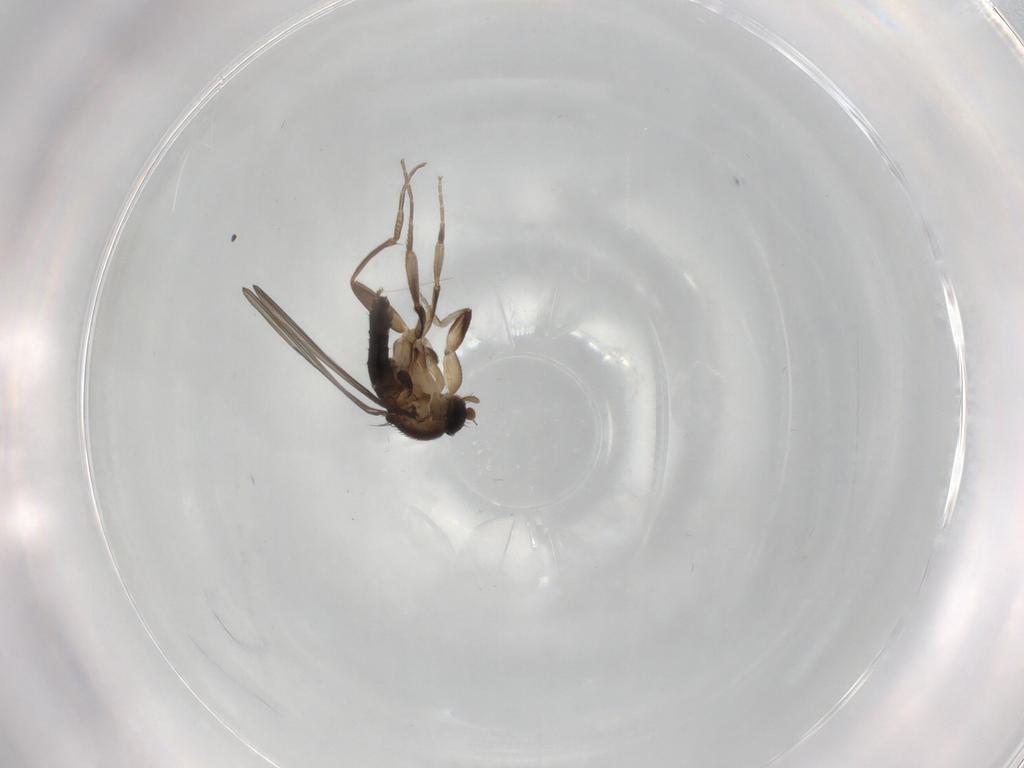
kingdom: Animalia
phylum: Arthropoda
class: Insecta
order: Diptera
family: Phoridae
